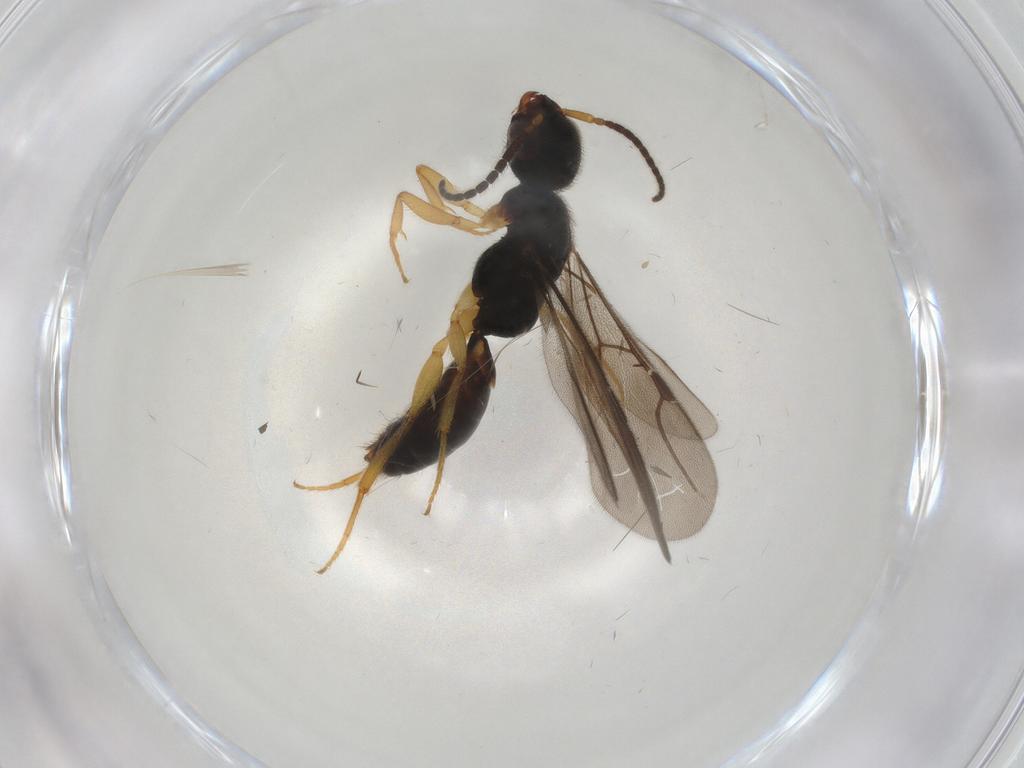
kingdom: Animalia
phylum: Arthropoda
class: Insecta
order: Hymenoptera
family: Bethylidae
